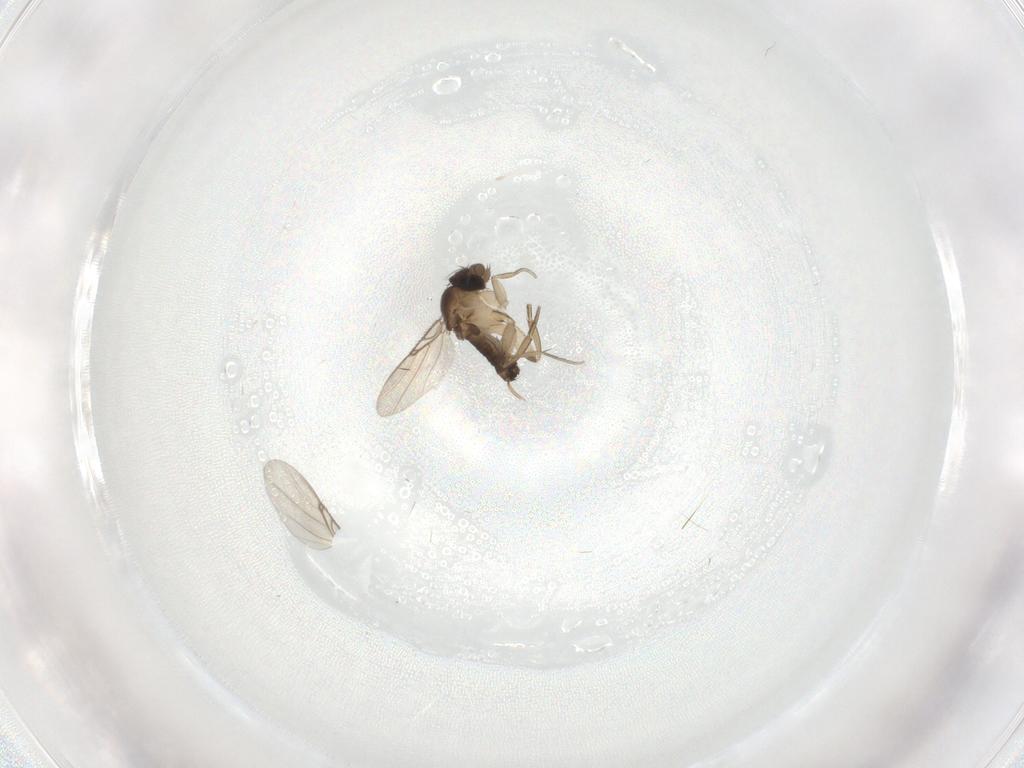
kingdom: Animalia
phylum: Arthropoda
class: Insecta
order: Diptera
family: Phoridae
